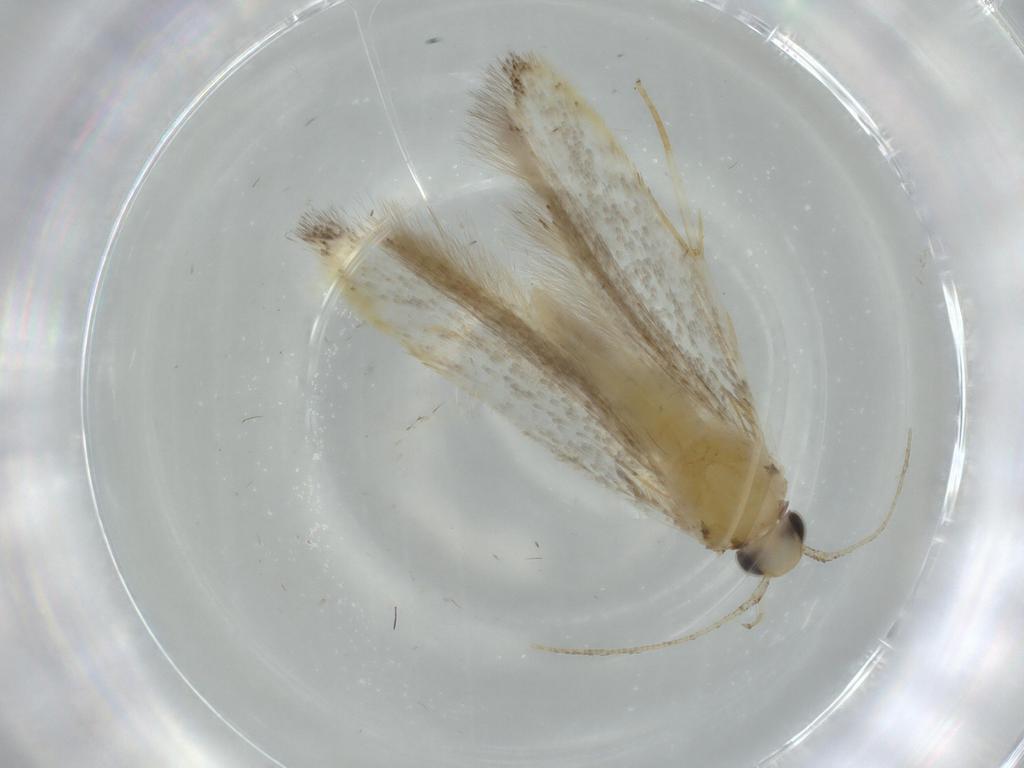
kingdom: Animalia
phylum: Arthropoda
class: Insecta
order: Lepidoptera
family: Autostichidae
